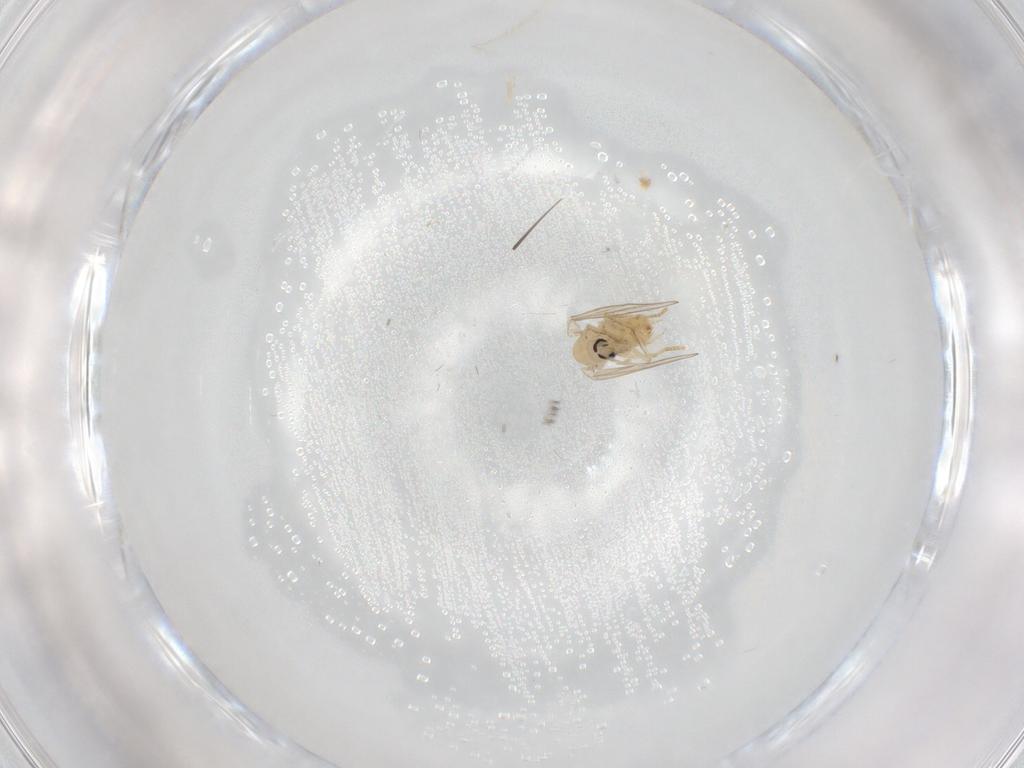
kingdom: Animalia
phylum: Arthropoda
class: Insecta
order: Diptera
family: Psychodidae
